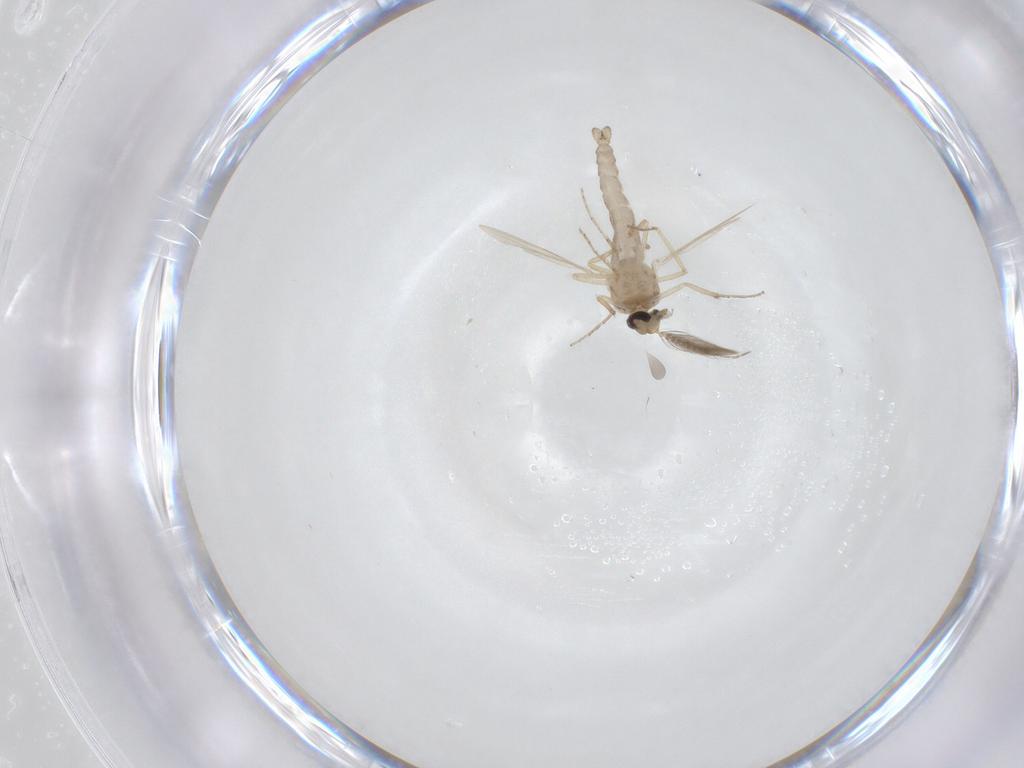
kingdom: Animalia
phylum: Arthropoda
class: Insecta
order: Diptera
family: Ceratopogonidae
